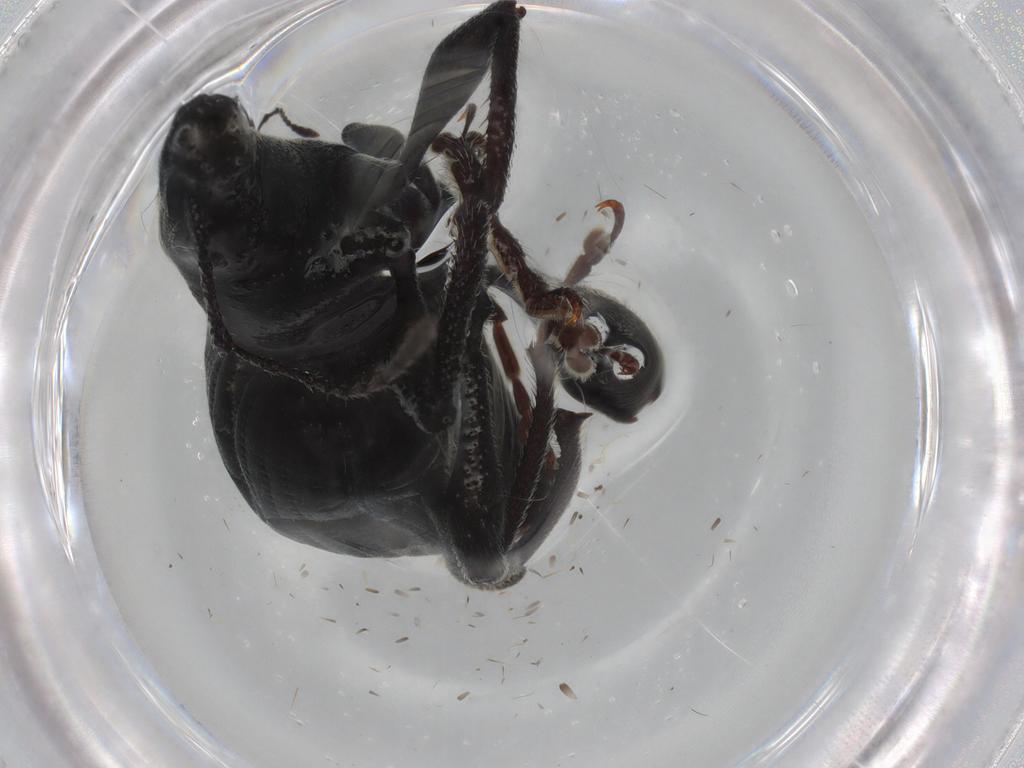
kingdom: Animalia
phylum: Arthropoda
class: Insecta
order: Coleoptera
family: Curculionidae
